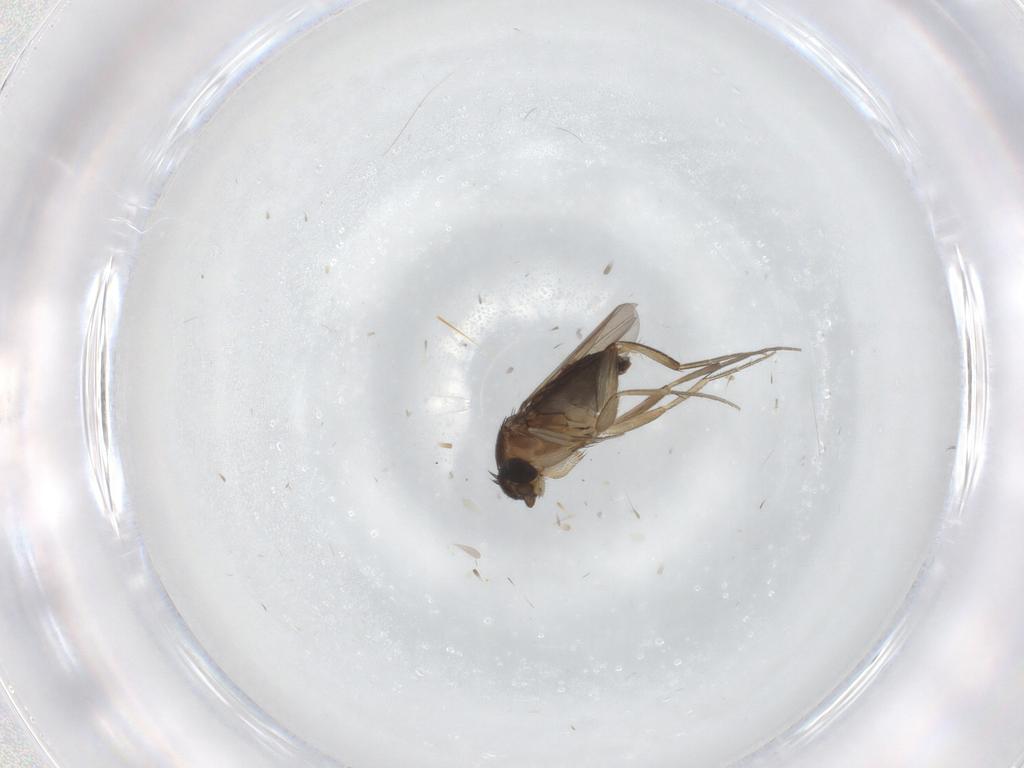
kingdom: Animalia
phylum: Arthropoda
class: Insecta
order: Diptera
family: Phoridae
